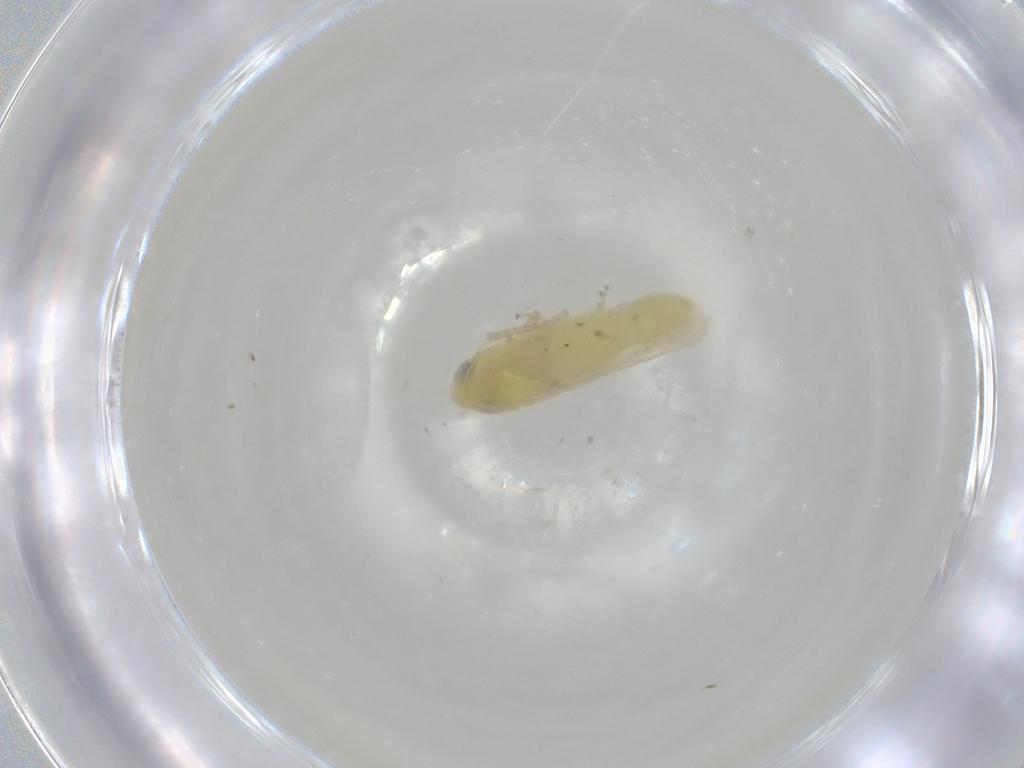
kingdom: Animalia
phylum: Arthropoda
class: Insecta
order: Hemiptera
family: Cicadellidae
